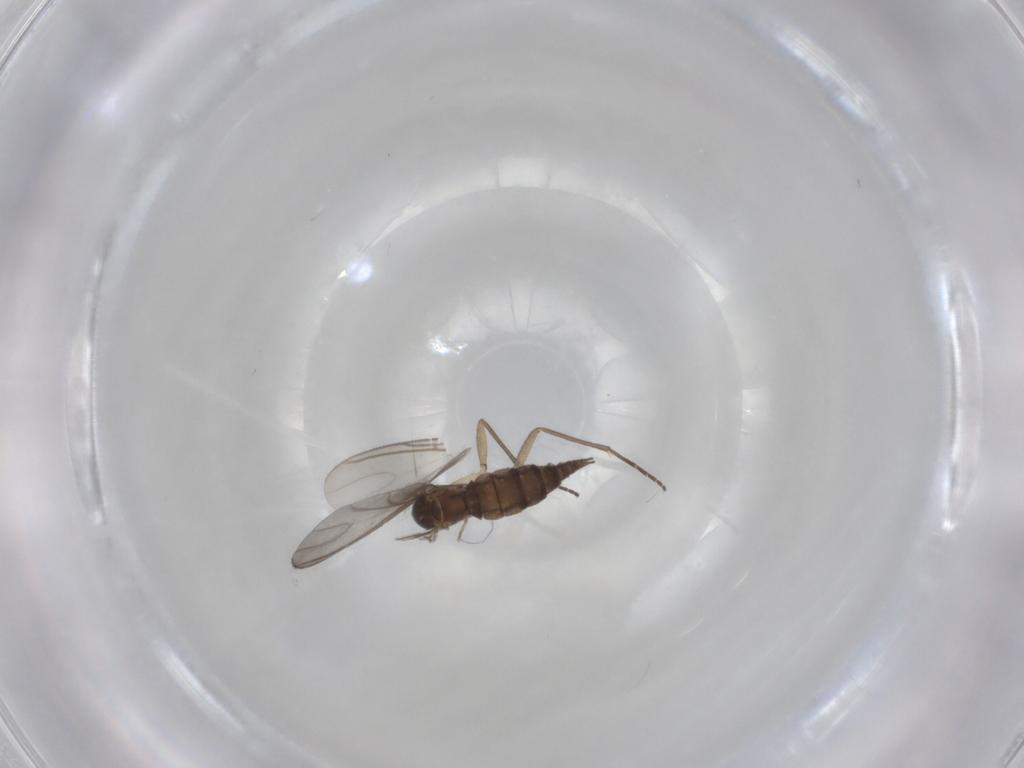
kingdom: Animalia
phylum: Arthropoda
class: Insecta
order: Diptera
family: Sciaridae
